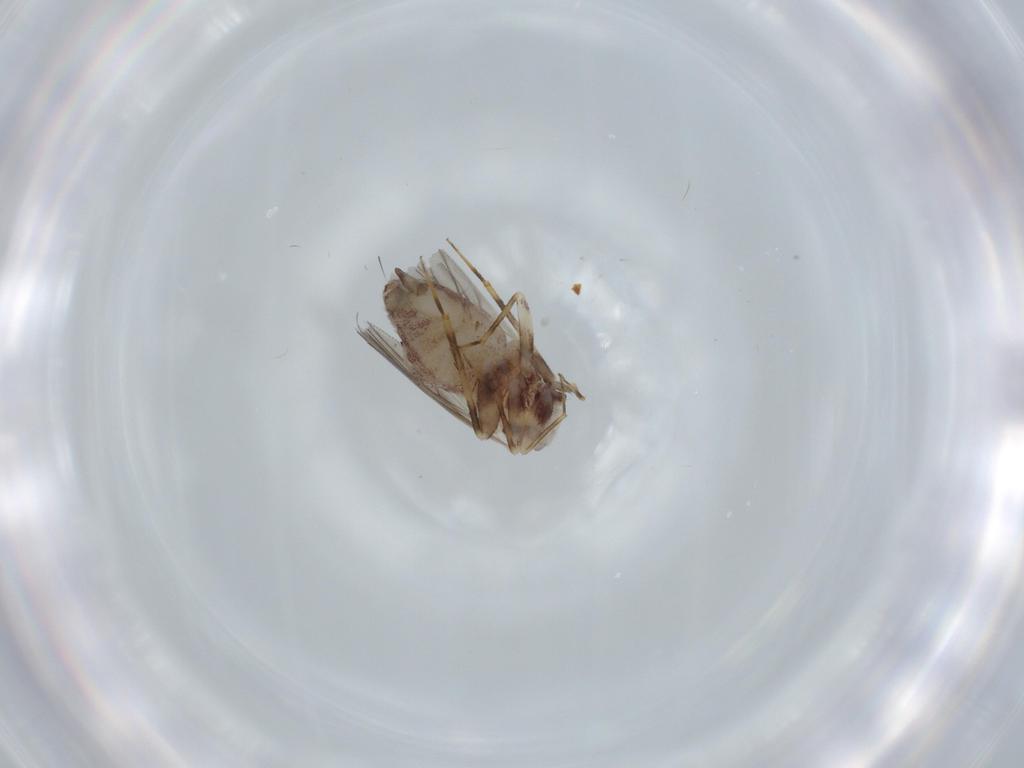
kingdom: Animalia
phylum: Arthropoda
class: Insecta
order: Psocodea
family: Lepidopsocidae
